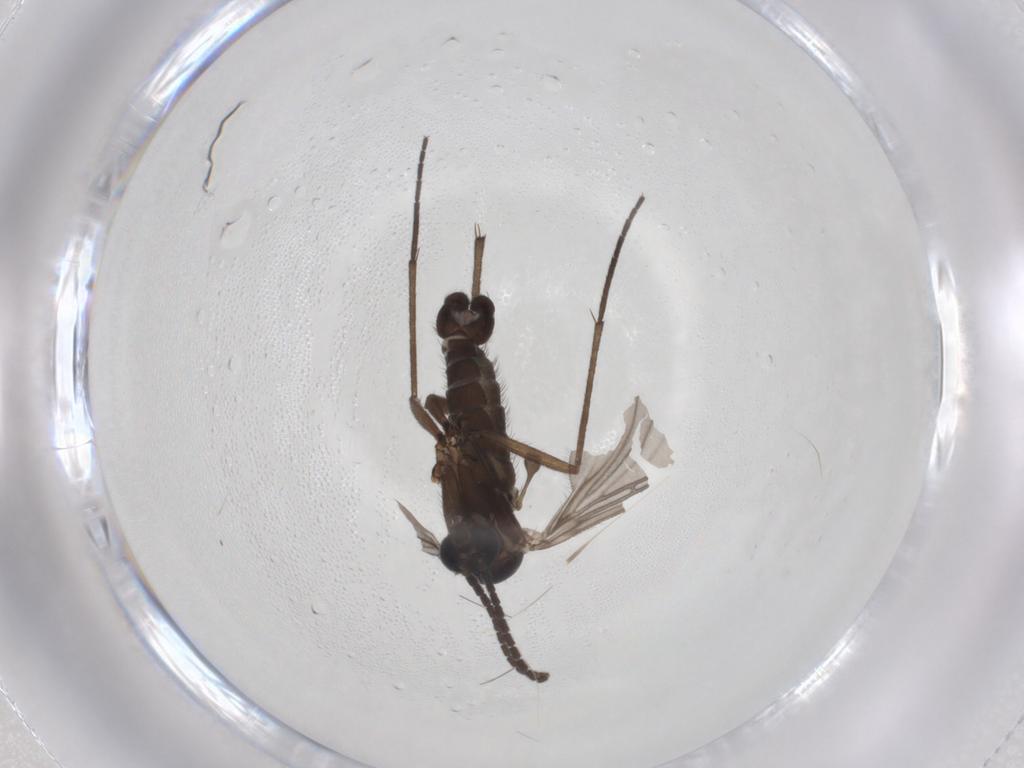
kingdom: Animalia
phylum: Arthropoda
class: Insecta
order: Diptera
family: Sciaridae
